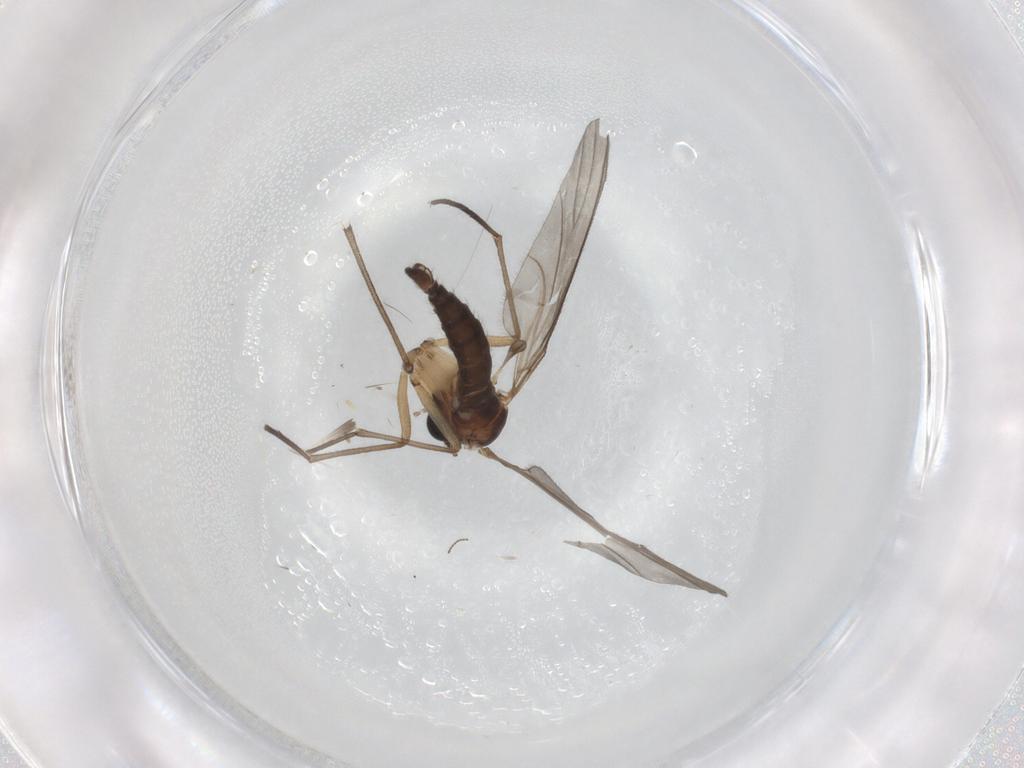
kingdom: Animalia
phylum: Arthropoda
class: Insecta
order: Diptera
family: Sciaridae
